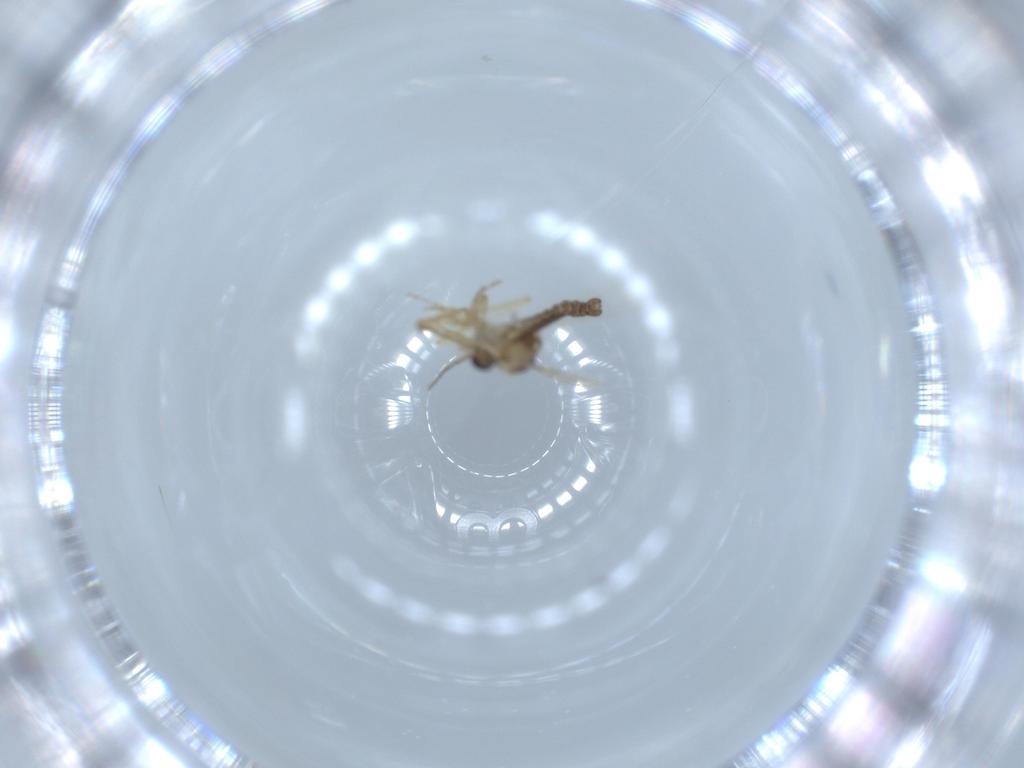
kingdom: Animalia
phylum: Arthropoda
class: Insecta
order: Diptera
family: Ceratopogonidae
